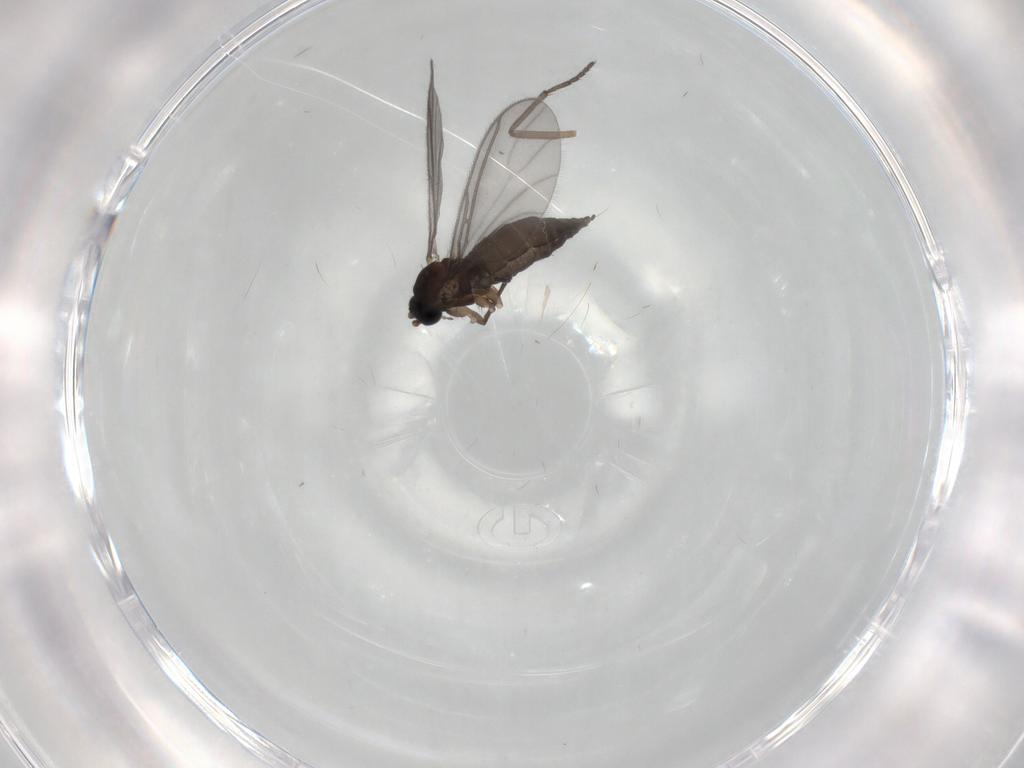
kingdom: Animalia
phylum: Arthropoda
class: Insecta
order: Diptera
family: Sciaridae
